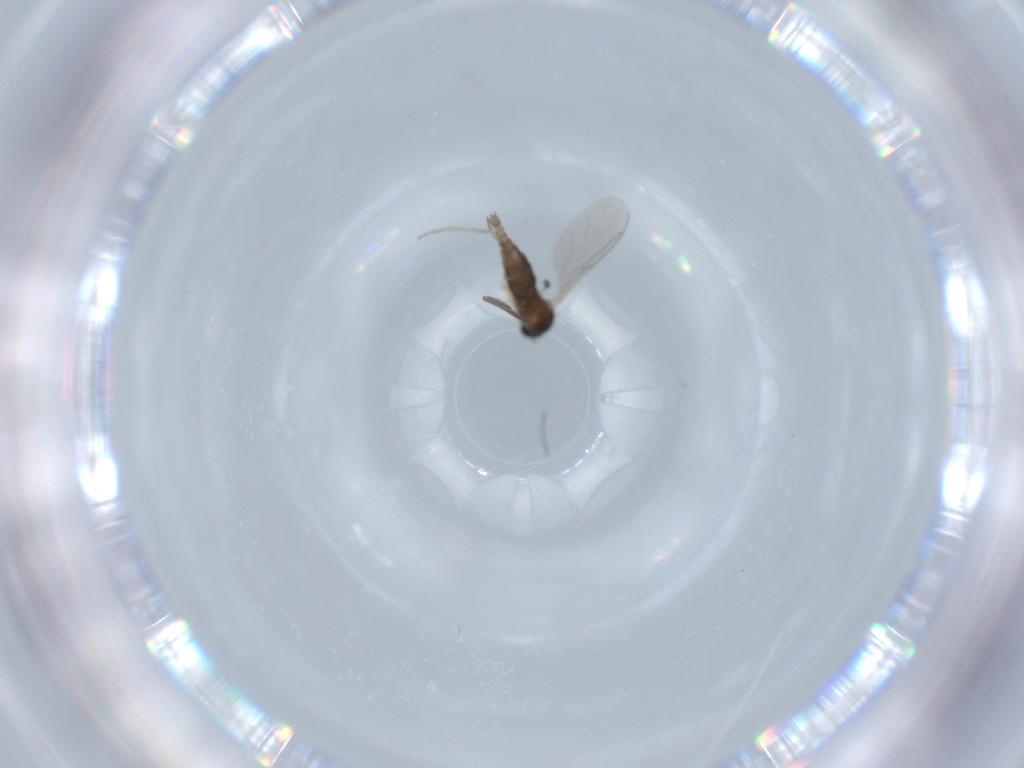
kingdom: Animalia
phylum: Arthropoda
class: Insecta
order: Diptera
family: Sciaridae
